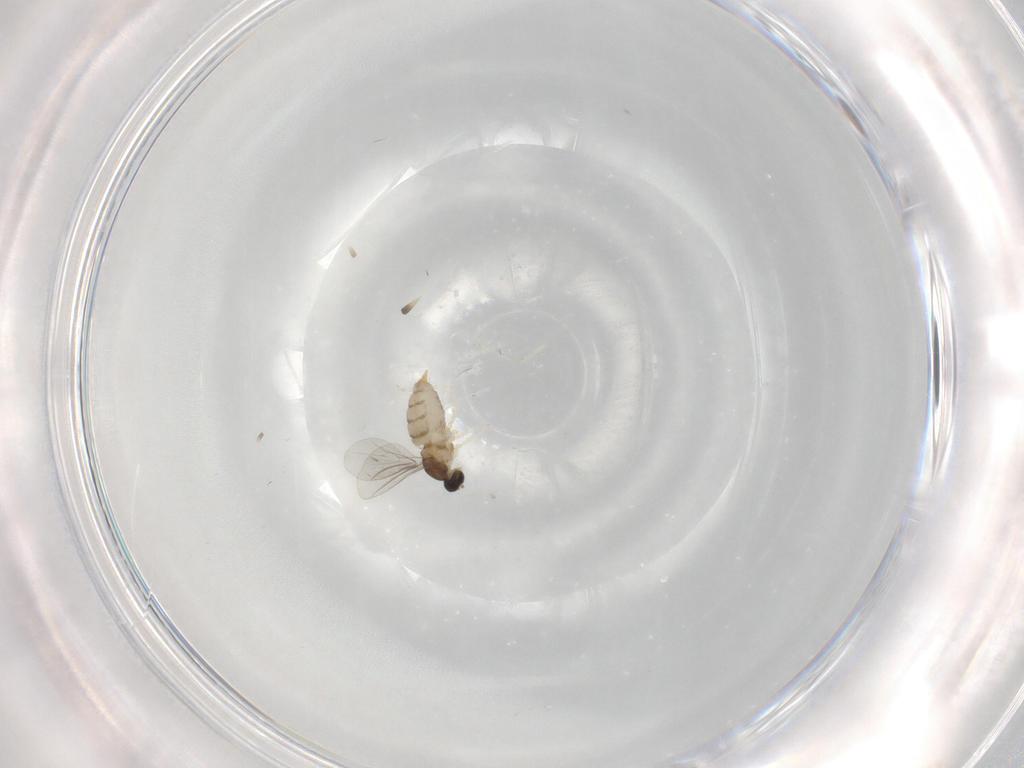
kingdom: Animalia
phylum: Arthropoda
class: Insecta
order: Diptera
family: Cecidomyiidae
